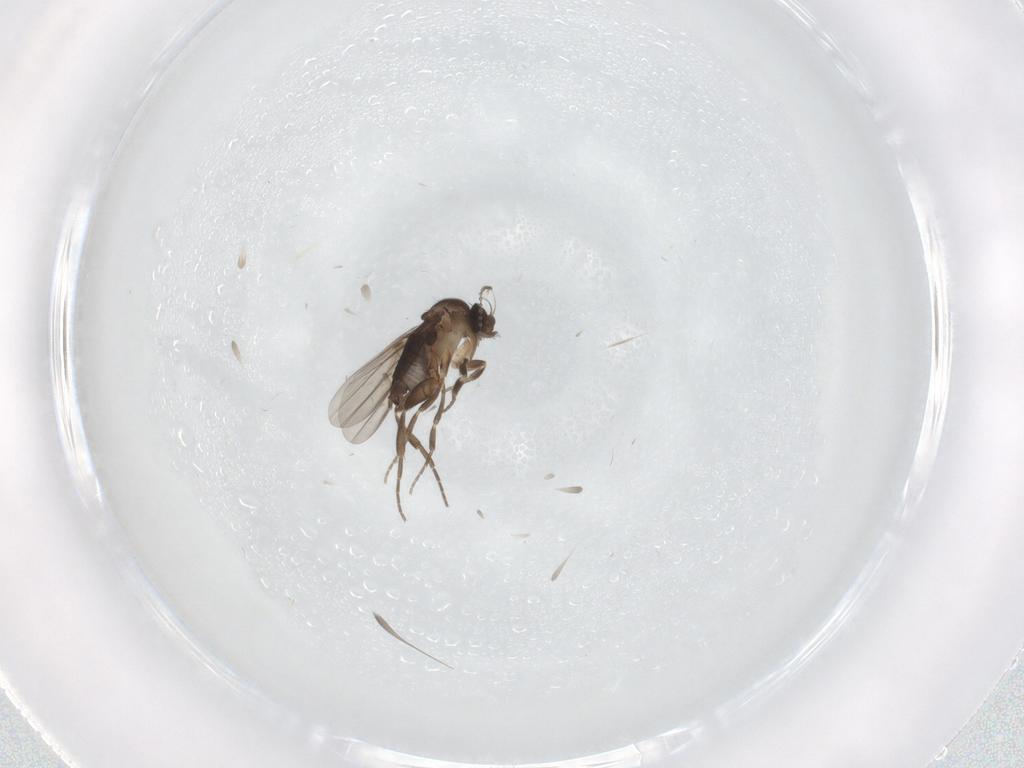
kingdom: Animalia
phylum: Arthropoda
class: Insecta
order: Diptera
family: Cecidomyiidae
